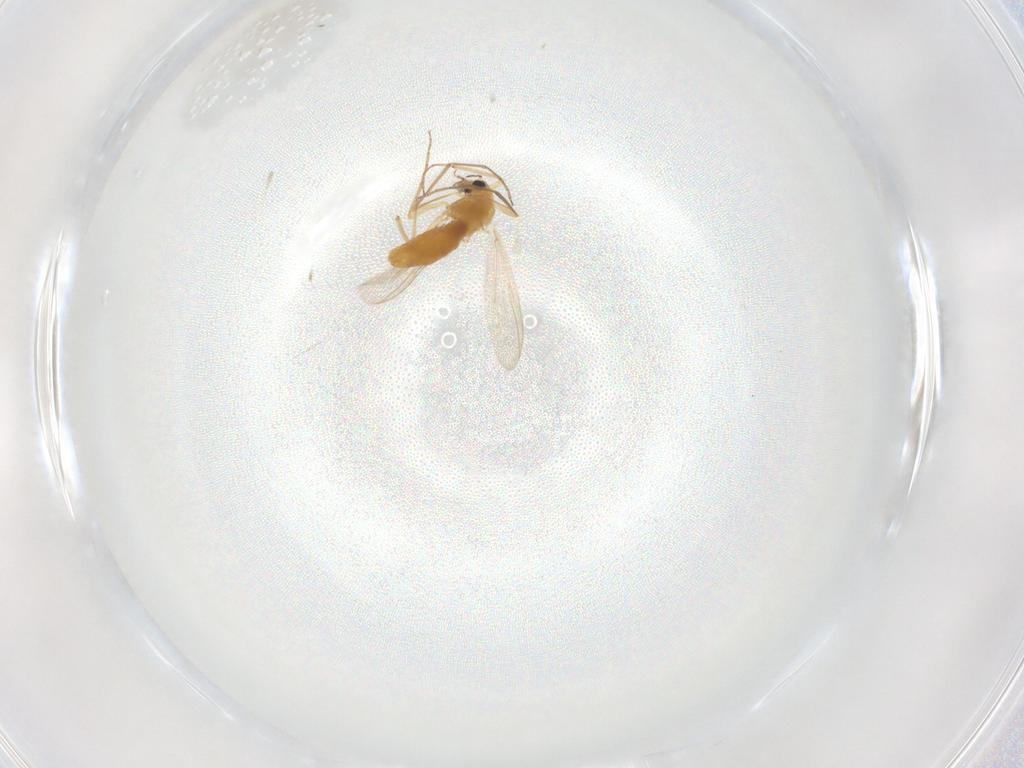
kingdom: Animalia
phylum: Arthropoda
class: Insecta
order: Diptera
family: Chironomidae
